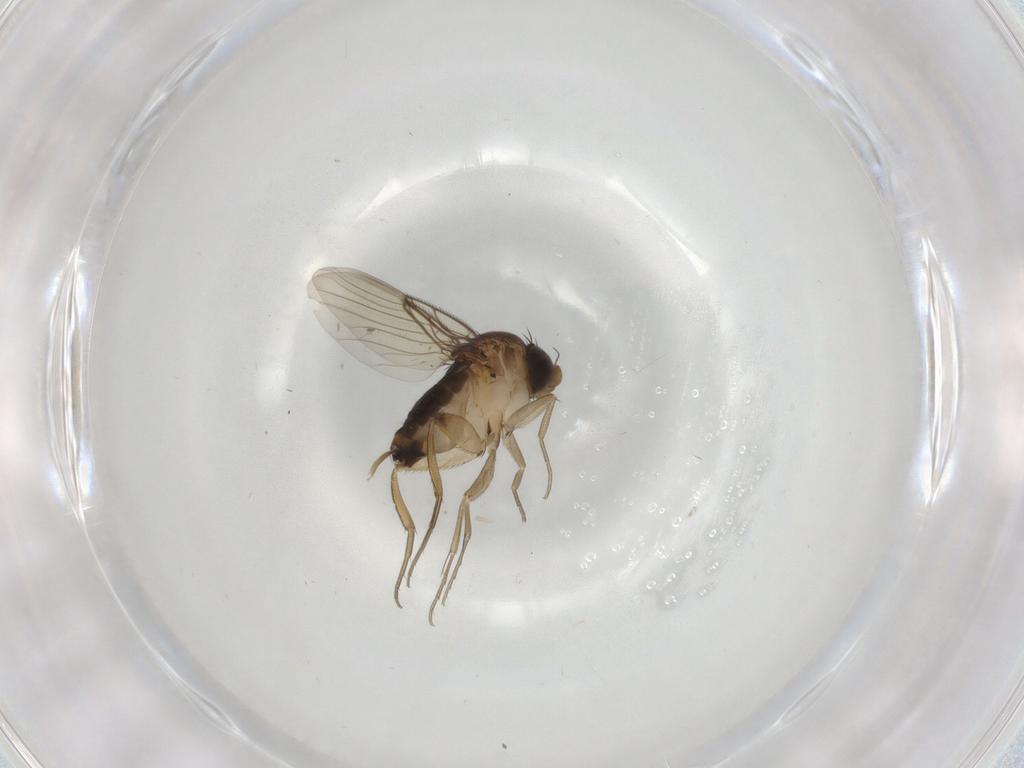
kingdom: Animalia
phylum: Arthropoda
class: Insecta
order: Diptera
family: Phoridae
